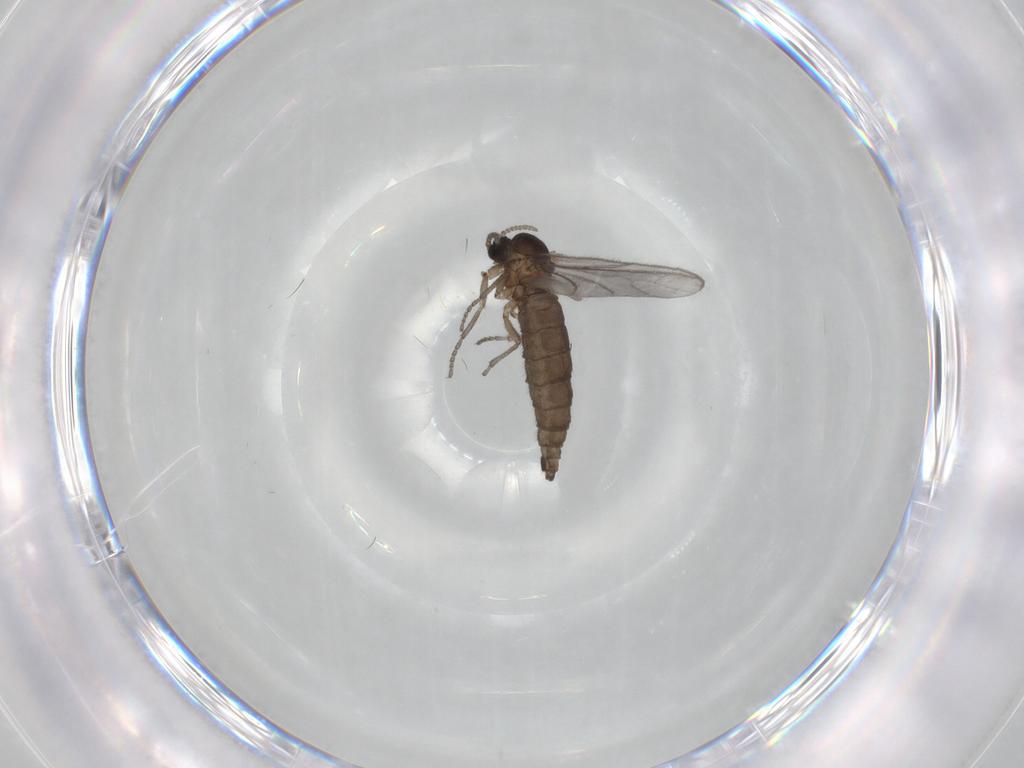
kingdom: Animalia
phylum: Arthropoda
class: Insecta
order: Diptera
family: Sciaridae
